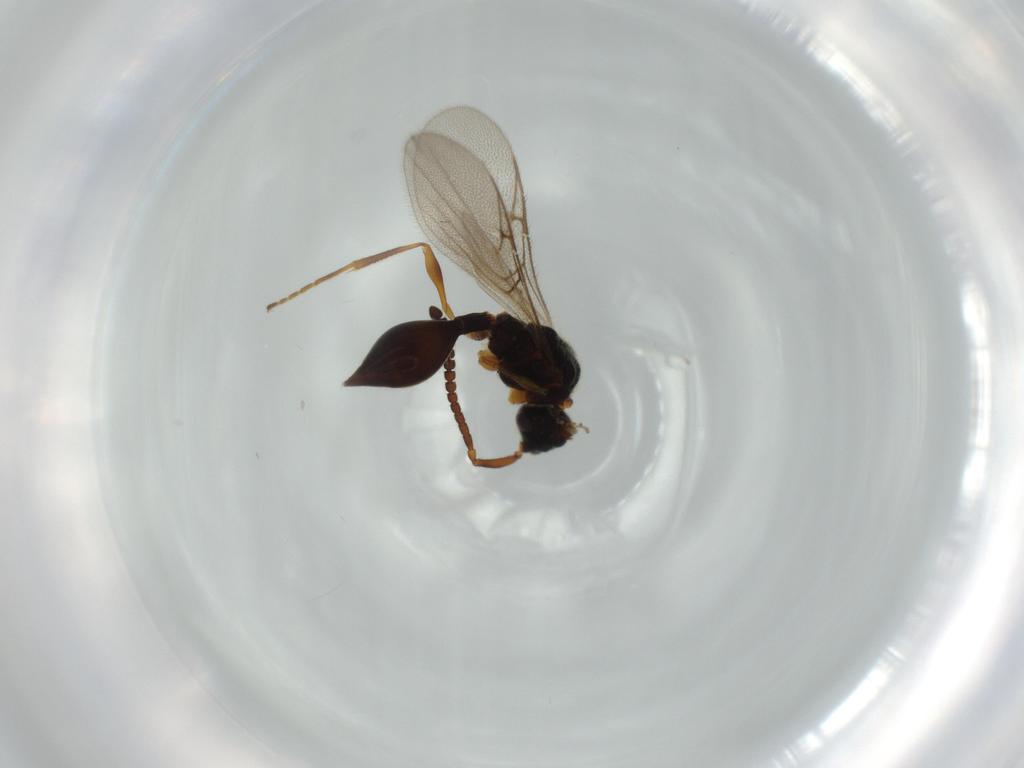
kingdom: Animalia
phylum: Arthropoda
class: Insecta
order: Hymenoptera
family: Diapriidae
